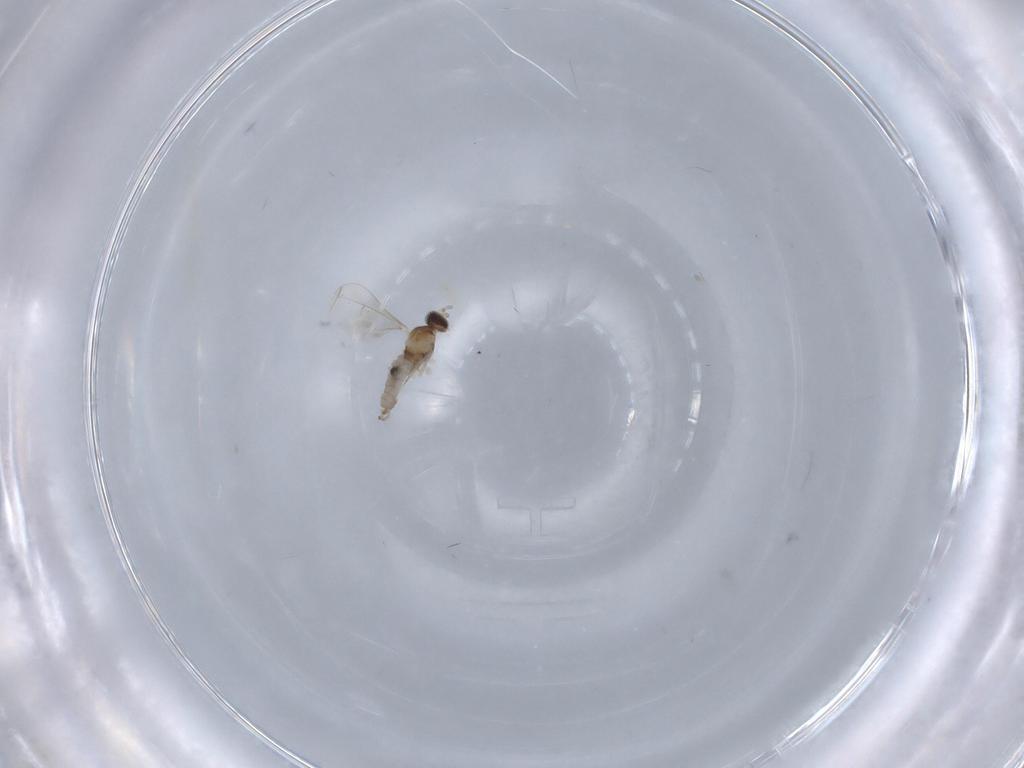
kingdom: Animalia
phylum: Arthropoda
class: Insecta
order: Diptera
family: Cecidomyiidae
